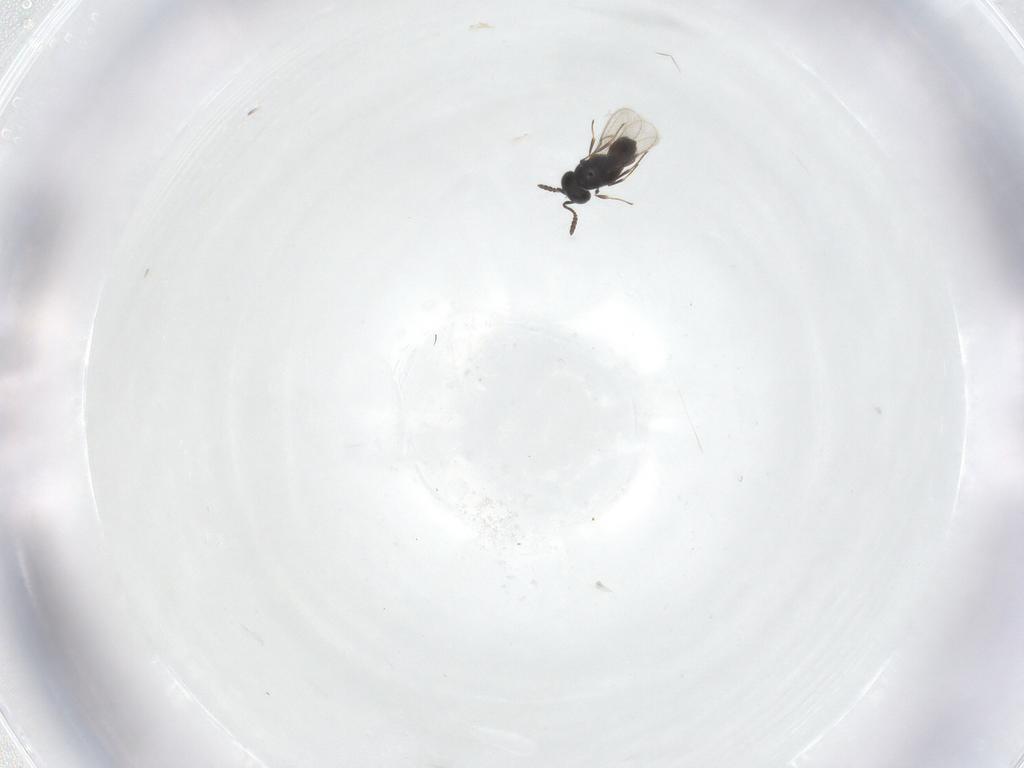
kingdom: Animalia
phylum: Arthropoda
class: Insecta
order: Hymenoptera
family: Scelionidae
